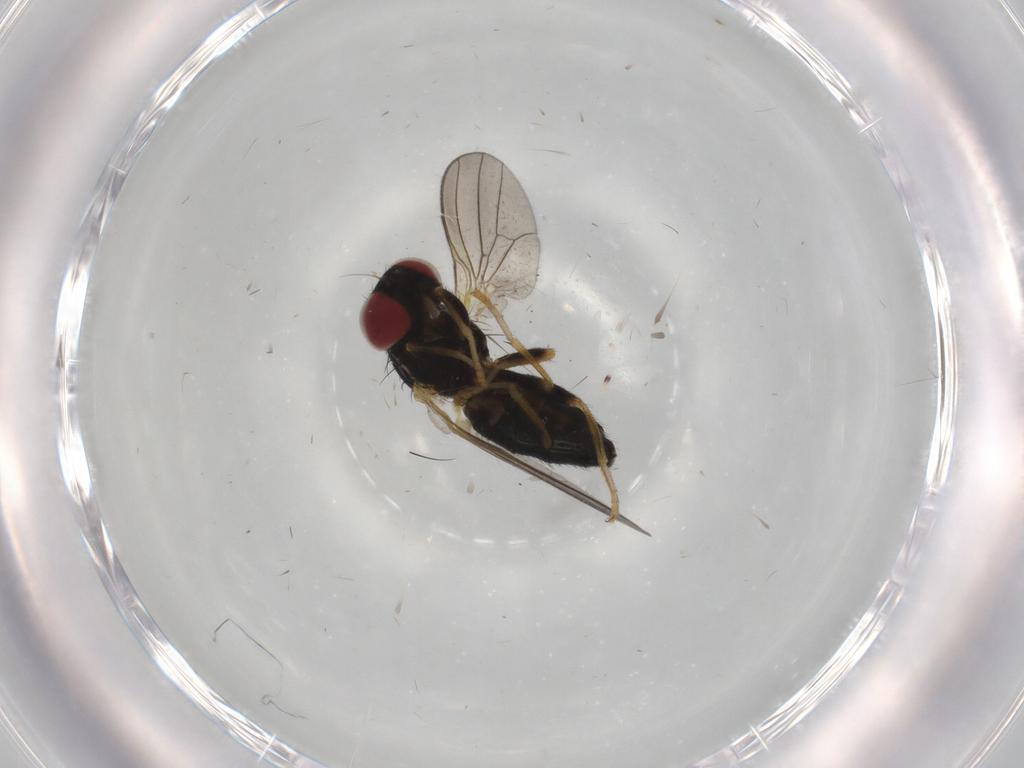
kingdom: Animalia
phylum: Arthropoda
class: Insecta
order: Diptera
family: Chamaemyiidae
